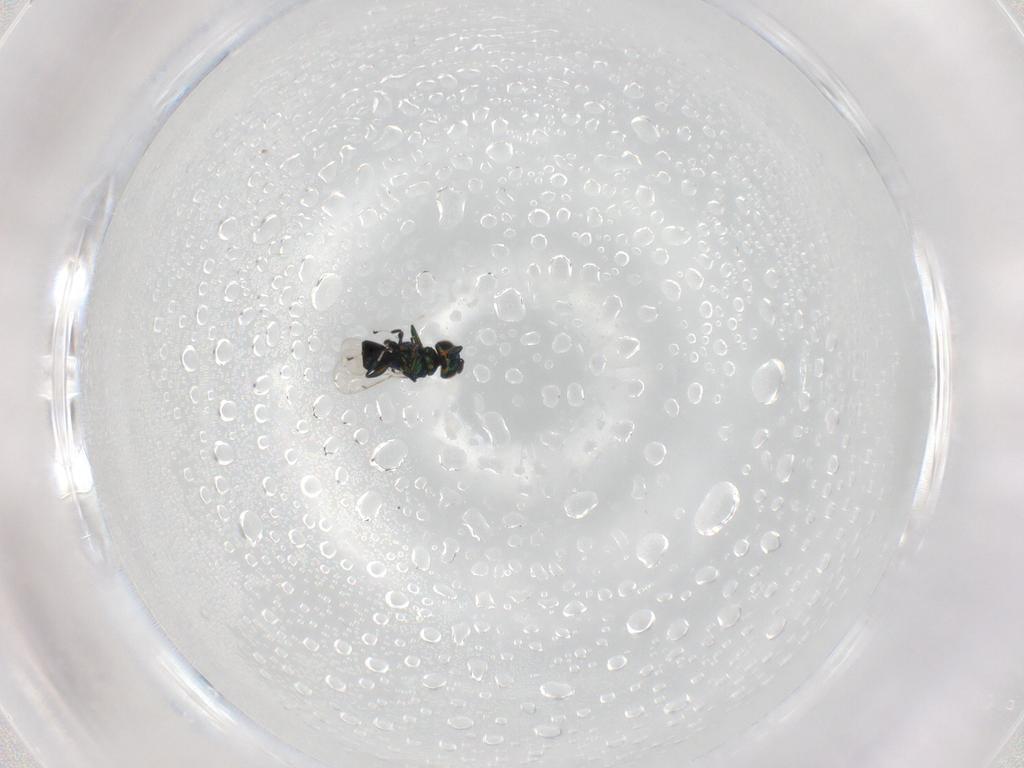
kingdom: Animalia
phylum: Arthropoda
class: Insecta
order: Hymenoptera
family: Eulophidae
